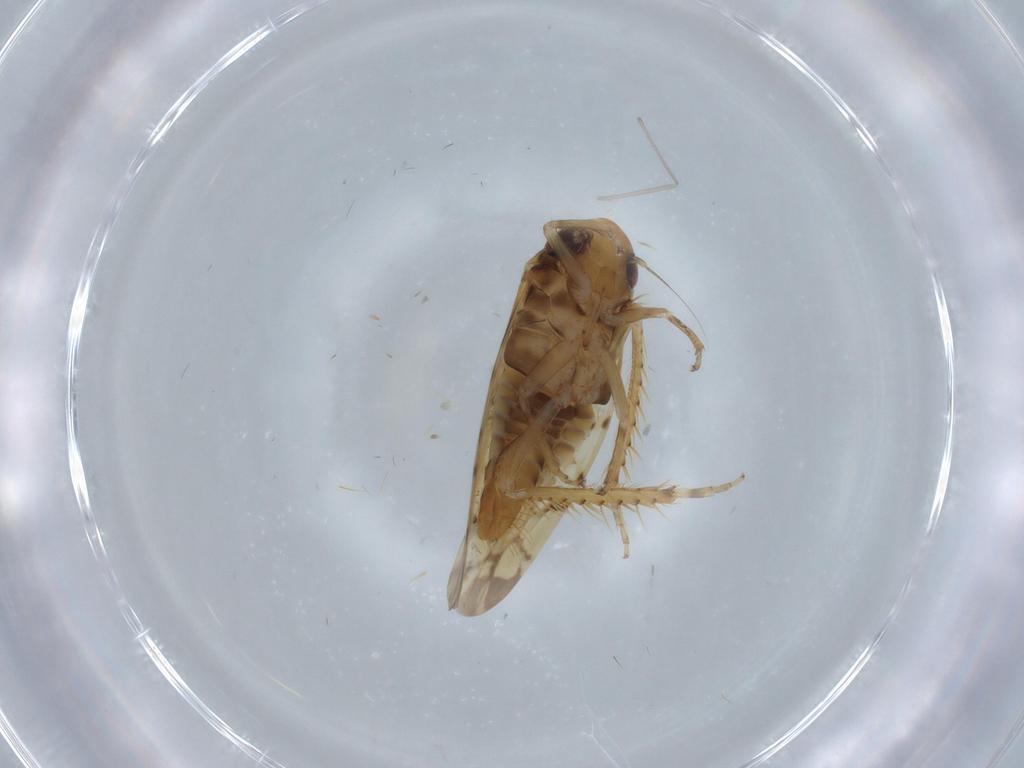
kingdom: Animalia
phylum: Arthropoda
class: Insecta
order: Hemiptera
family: Cicadellidae
